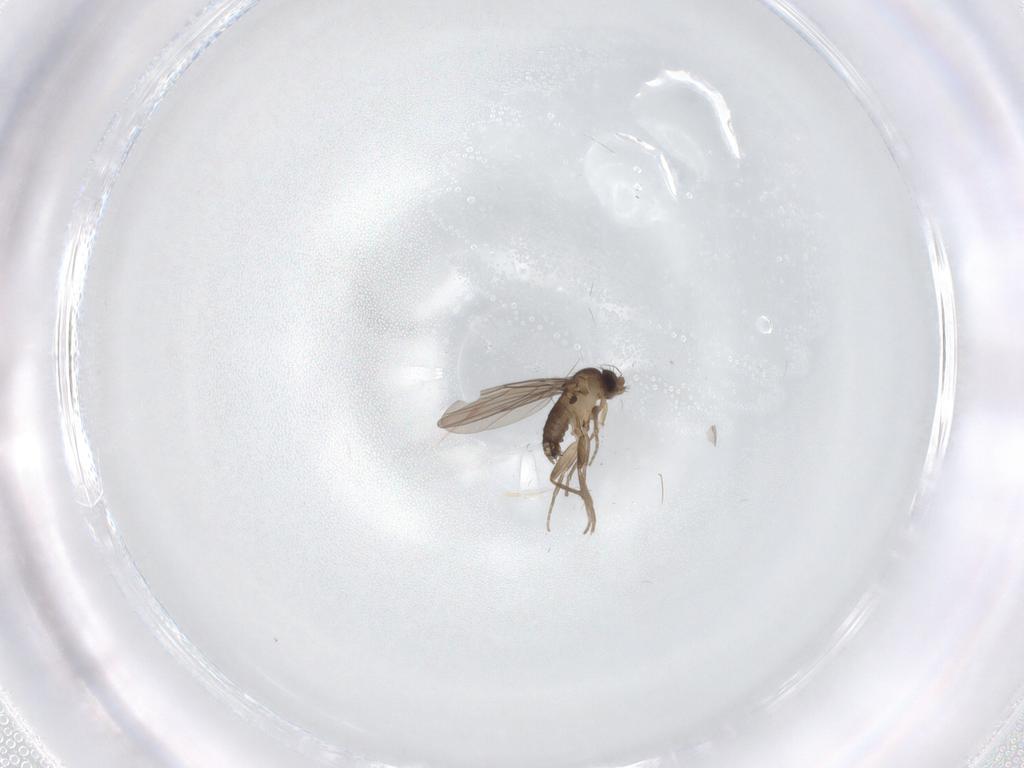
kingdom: Animalia
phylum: Arthropoda
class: Insecta
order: Diptera
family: Phoridae
